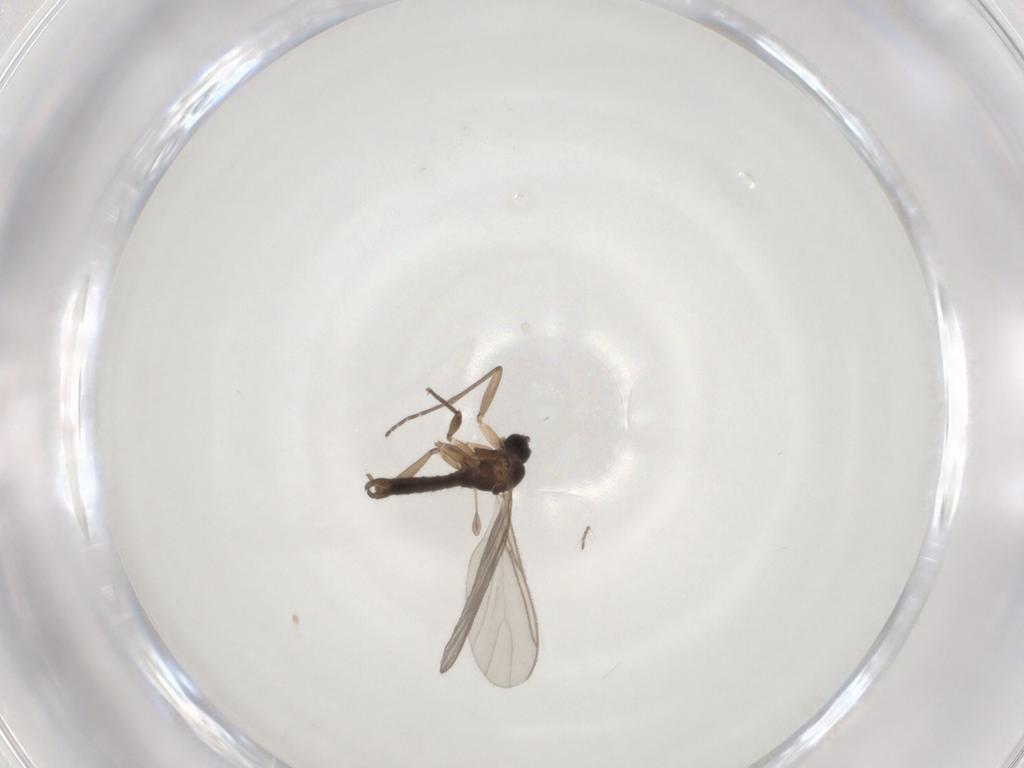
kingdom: Animalia
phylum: Arthropoda
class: Insecta
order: Diptera
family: Sciaridae
